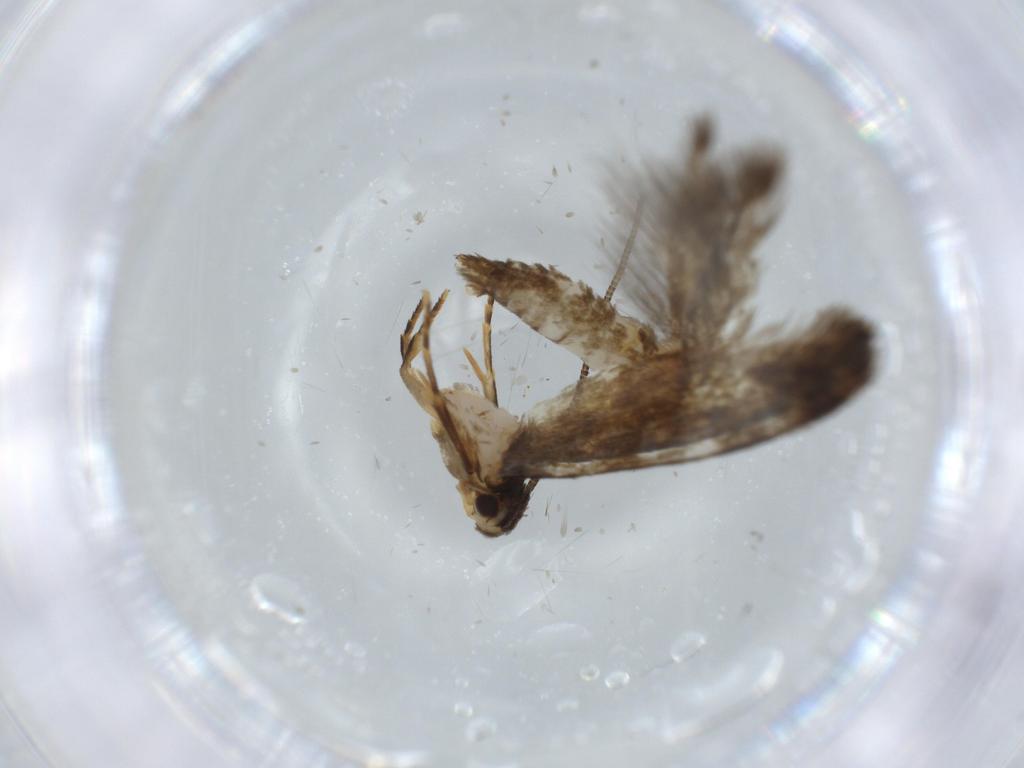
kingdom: Animalia
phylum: Arthropoda
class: Insecta
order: Lepidoptera
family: Tineidae
